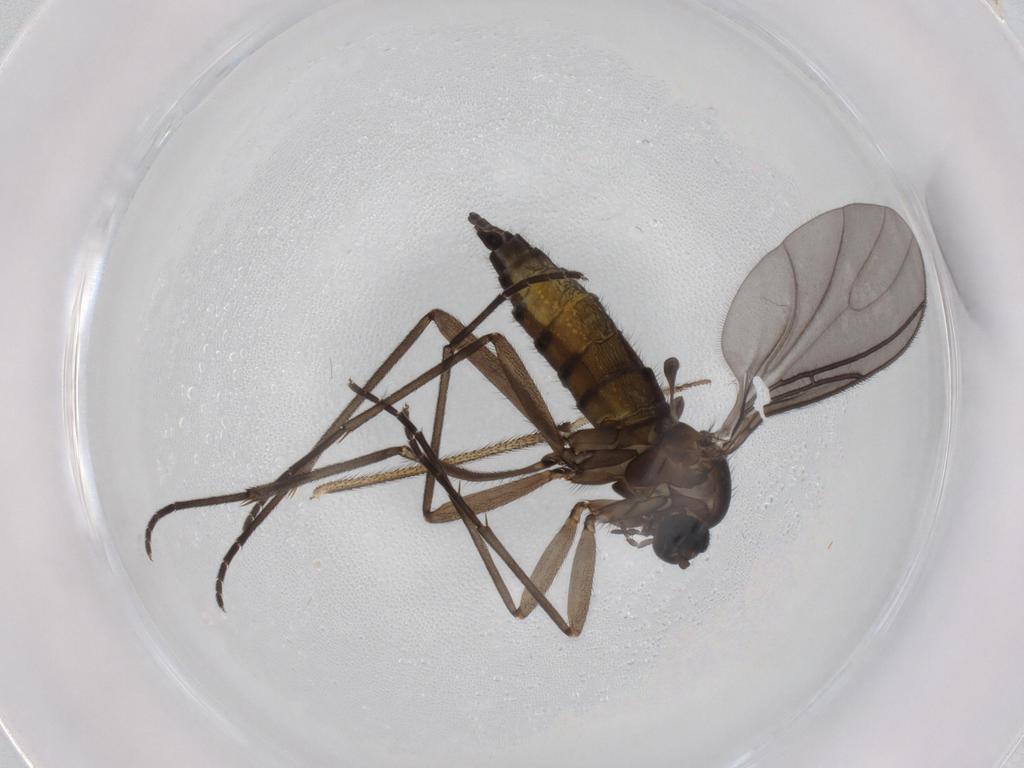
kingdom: Animalia
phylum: Arthropoda
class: Insecta
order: Diptera
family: Sciaridae
